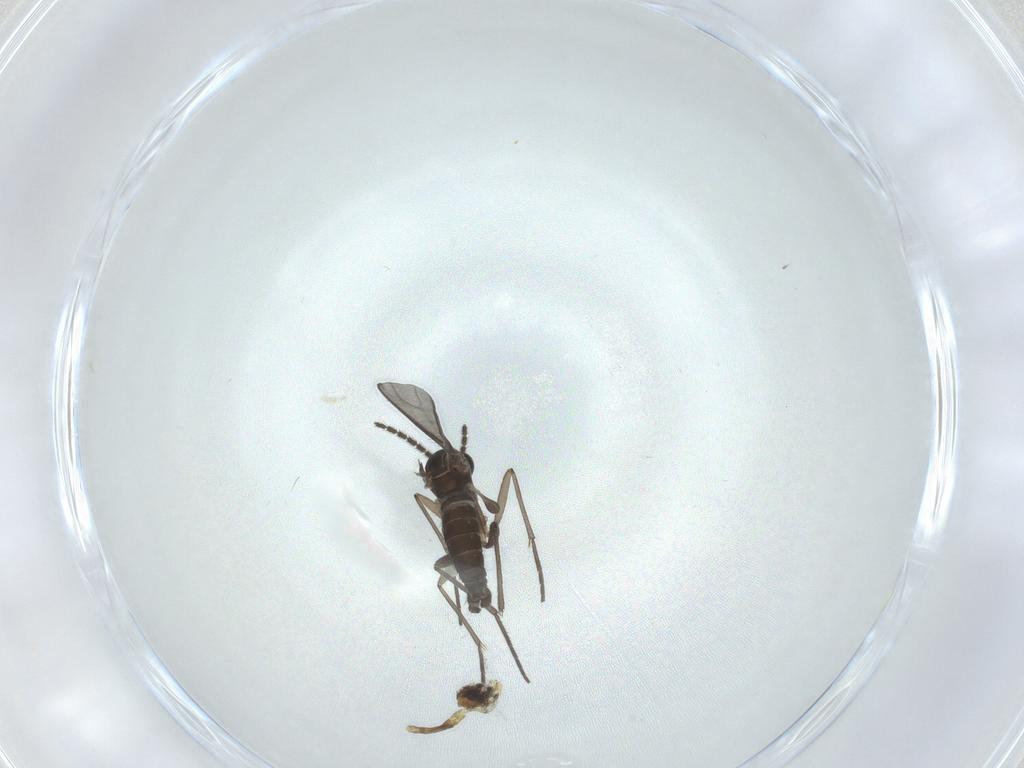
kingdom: Animalia
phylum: Arthropoda
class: Insecta
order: Diptera
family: Sciaridae
